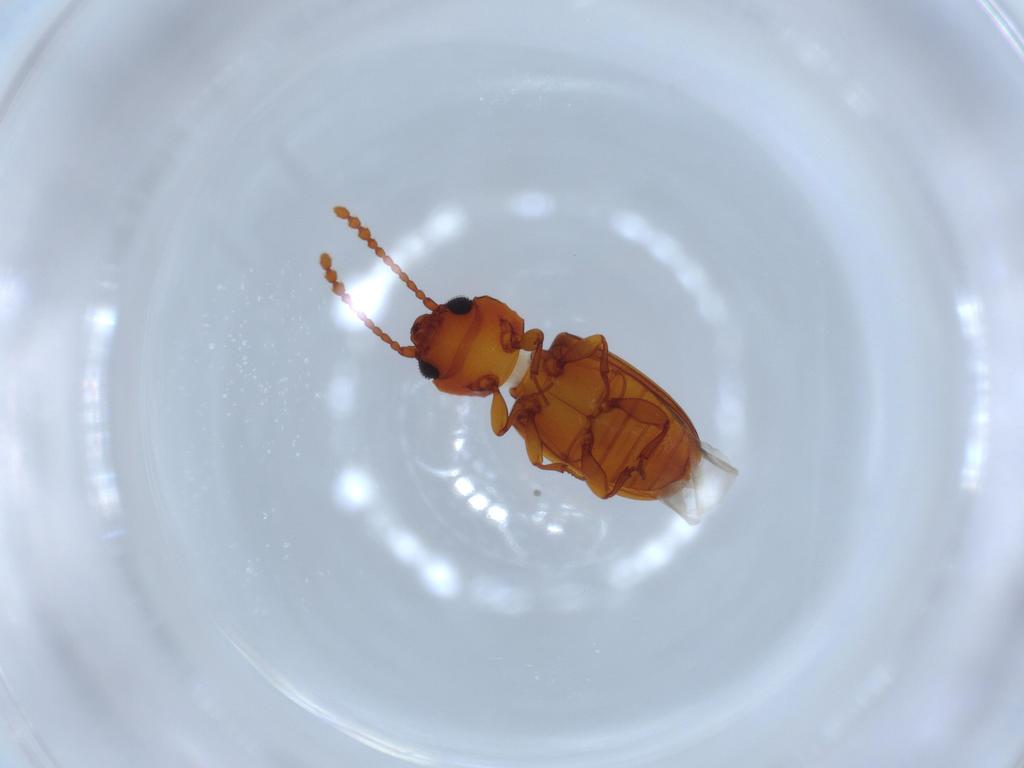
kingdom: Animalia
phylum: Arthropoda
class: Insecta
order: Coleoptera
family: Laemophloeidae
